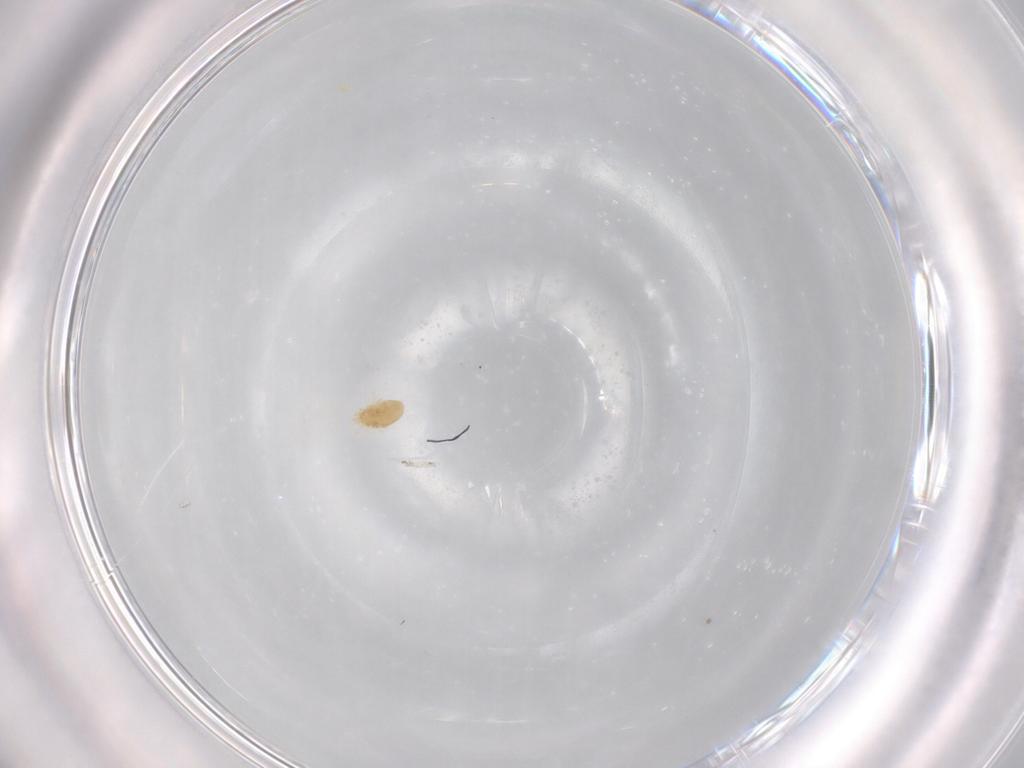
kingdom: Animalia
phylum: Arthropoda
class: Arachnida
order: Trombidiformes
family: Eupodidae
